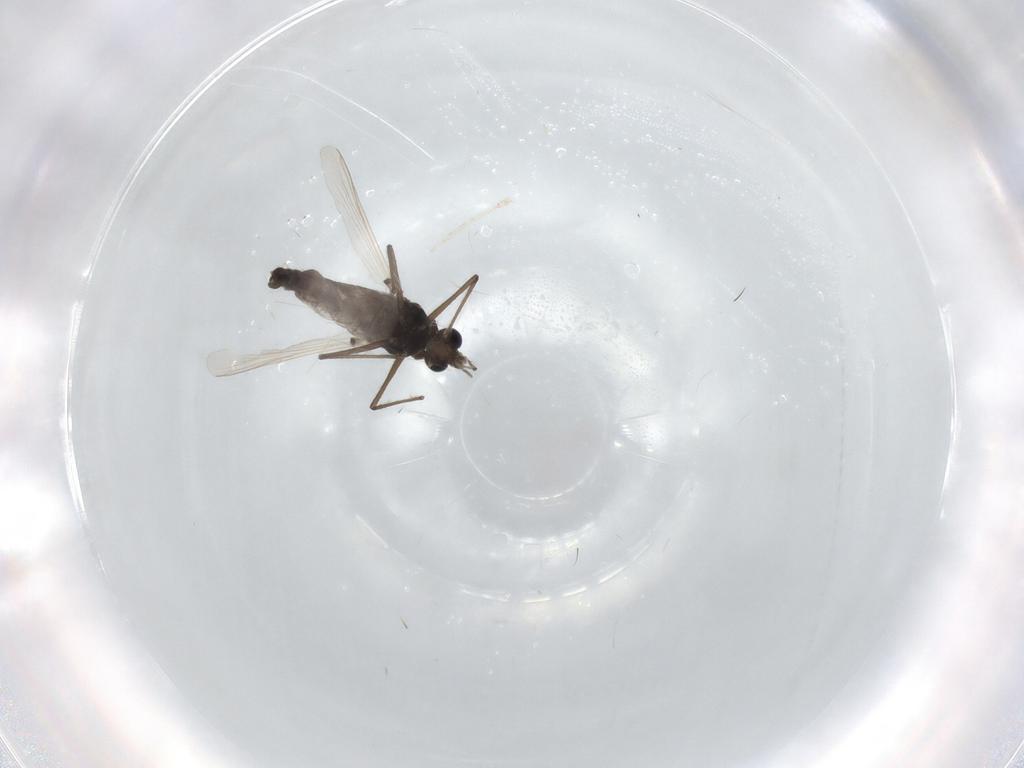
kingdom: Animalia
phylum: Arthropoda
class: Insecta
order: Diptera
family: Chironomidae
